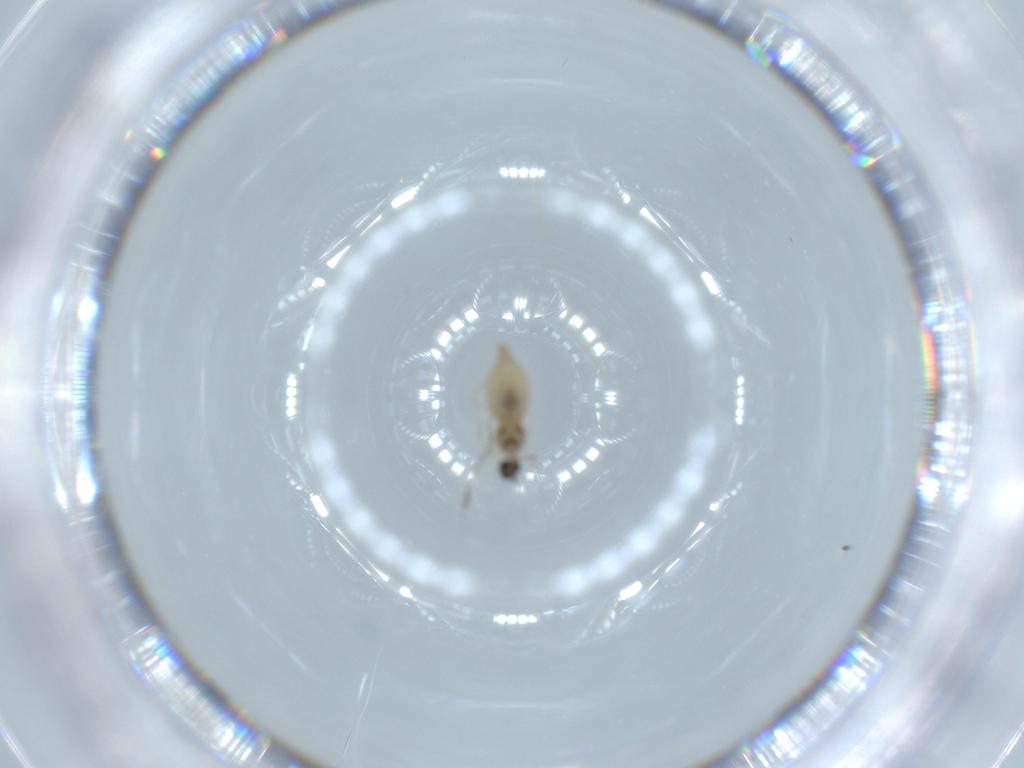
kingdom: Animalia
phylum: Arthropoda
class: Insecta
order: Diptera
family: Cecidomyiidae
